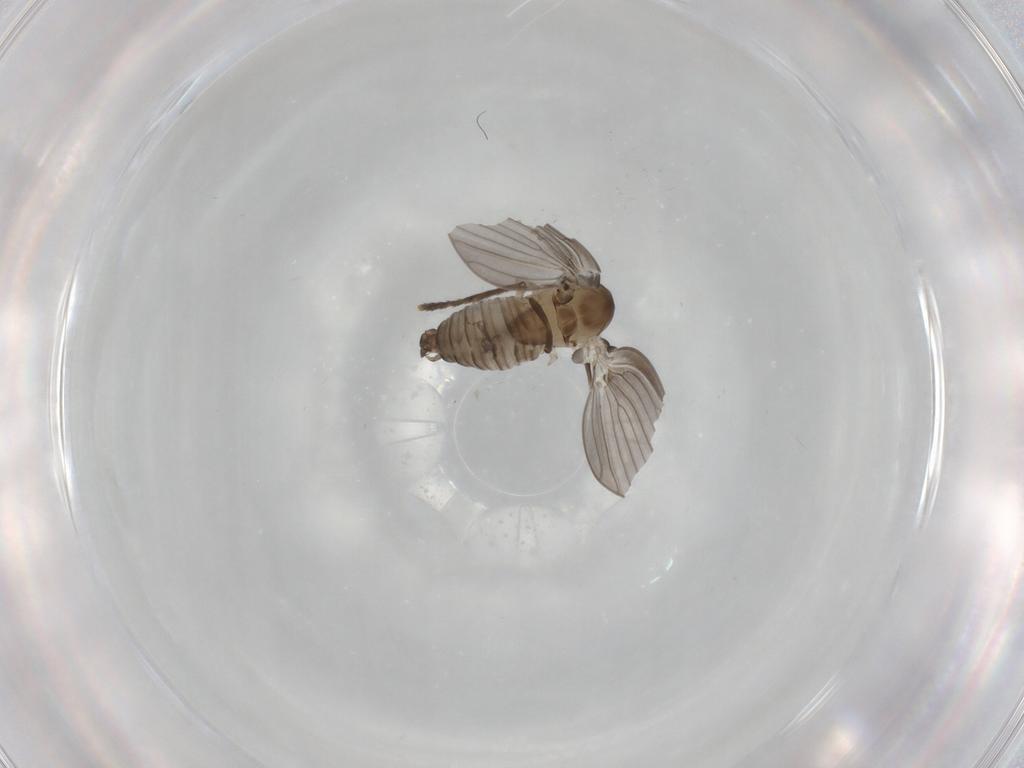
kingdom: Animalia
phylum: Arthropoda
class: Insecta
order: Diptera
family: Psychodidae
